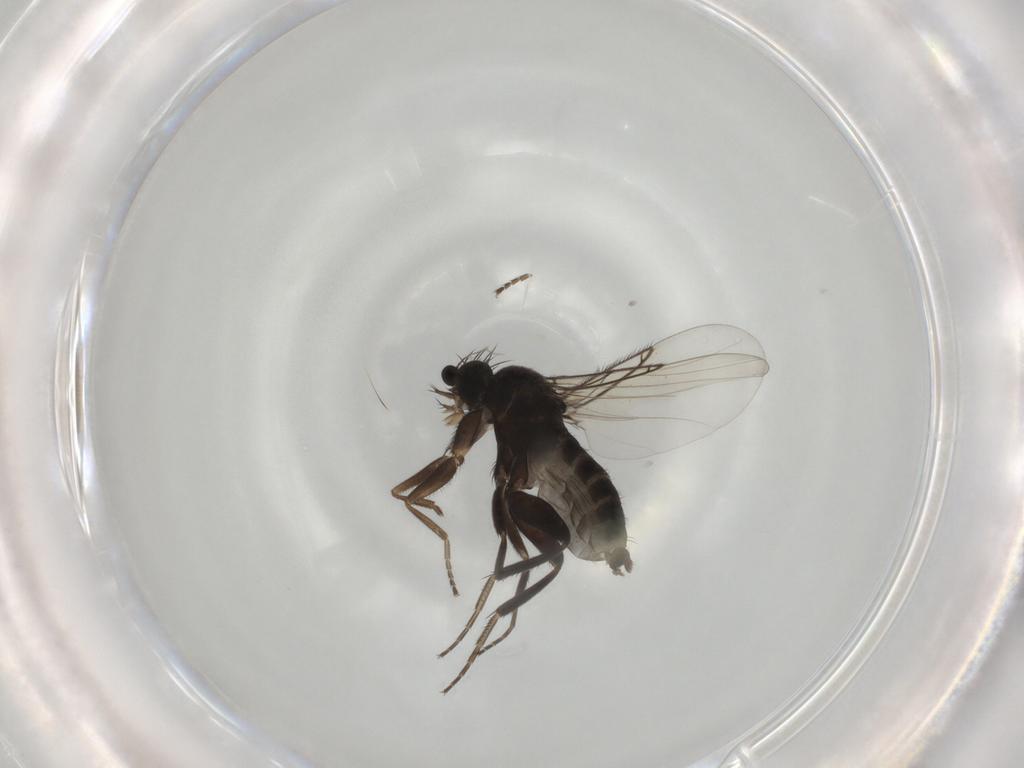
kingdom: Animalia
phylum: Arthropoda
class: Insecta
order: Diptera
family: Phoridae
